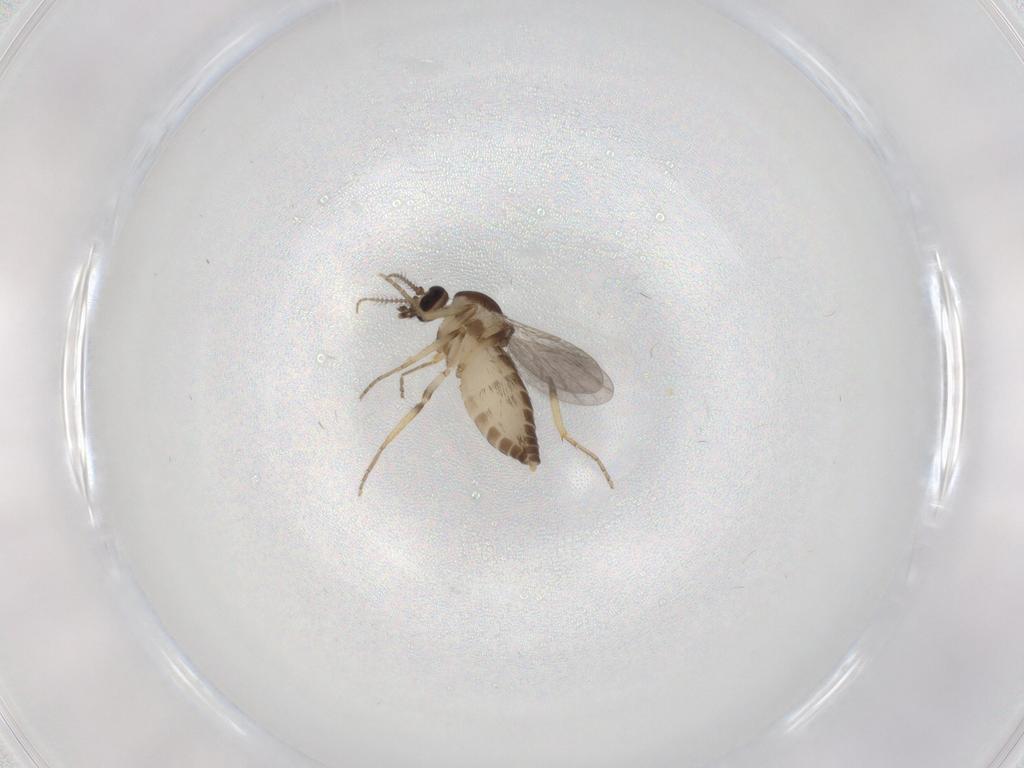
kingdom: Animalia
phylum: Arthropoda
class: Insecta
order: Diptera
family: Ceratopogonidae
